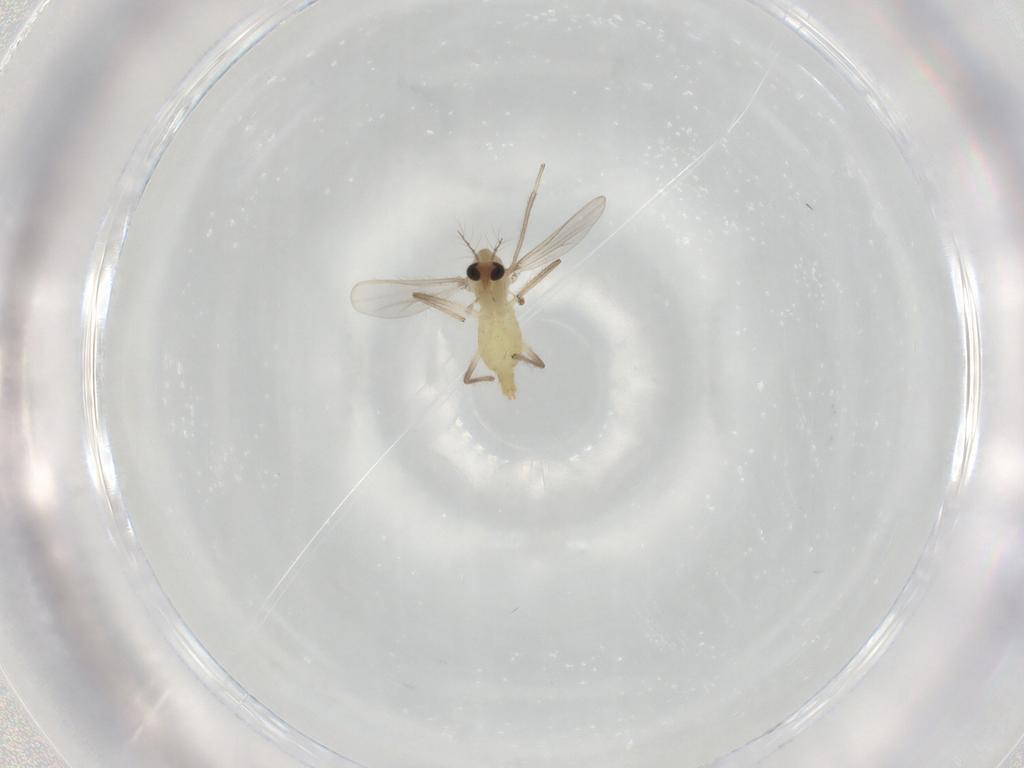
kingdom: Animalia
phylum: Arthropoda
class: Insecta
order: Diptera
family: Chironomidae
